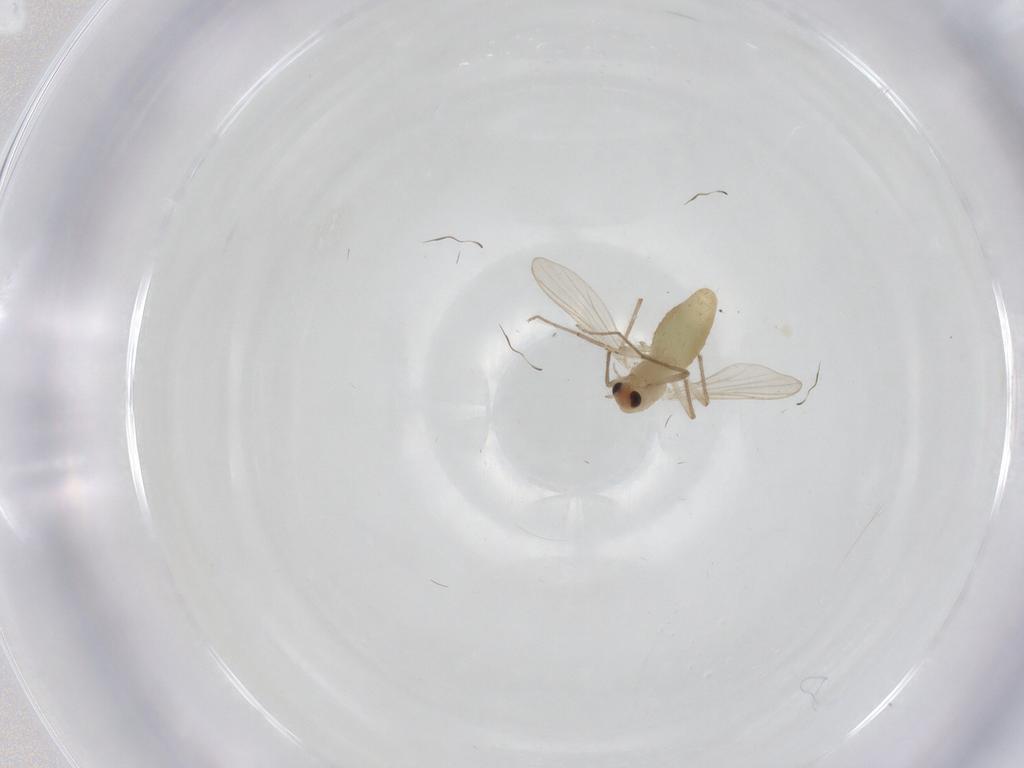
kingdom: Animalia
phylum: Arthropoda
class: Insecta
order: Diptera
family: Chironomidae
